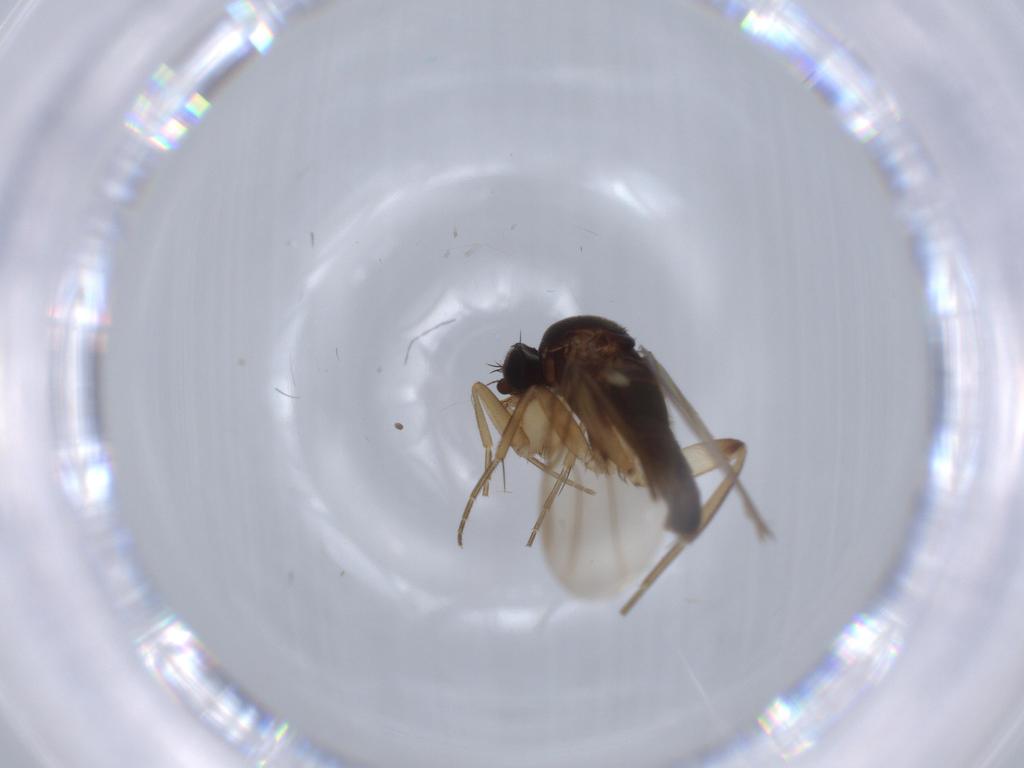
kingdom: Animalia
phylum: Arthropoda
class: Insecta
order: Diptera
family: Phoridae
